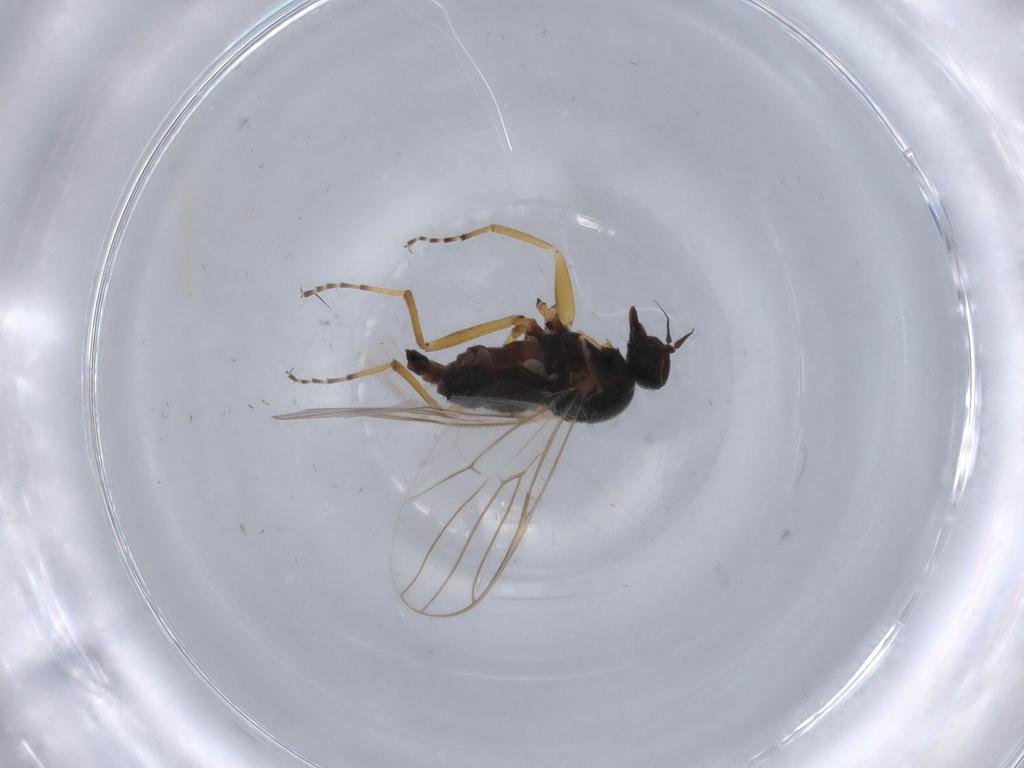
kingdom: Animalia
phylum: Arthropoda
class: Insecta
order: Diptera
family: Hybotidae
